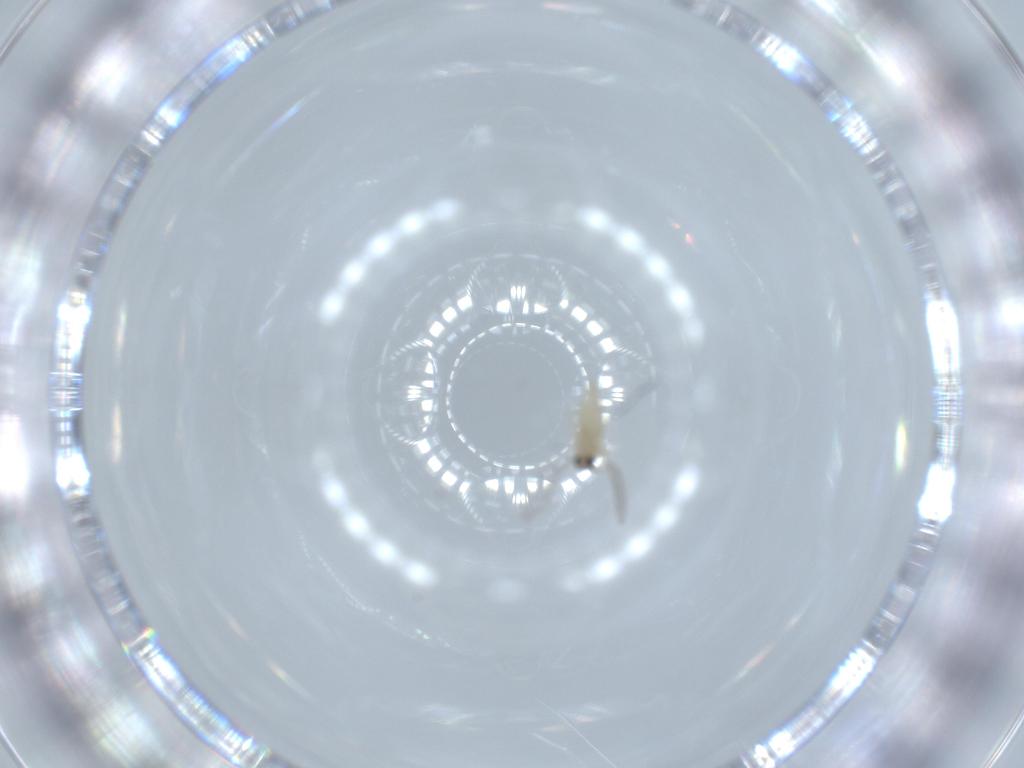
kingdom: Animalia
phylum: Arthropoda
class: Insecta
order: Diptera
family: Cecidomyiidae
